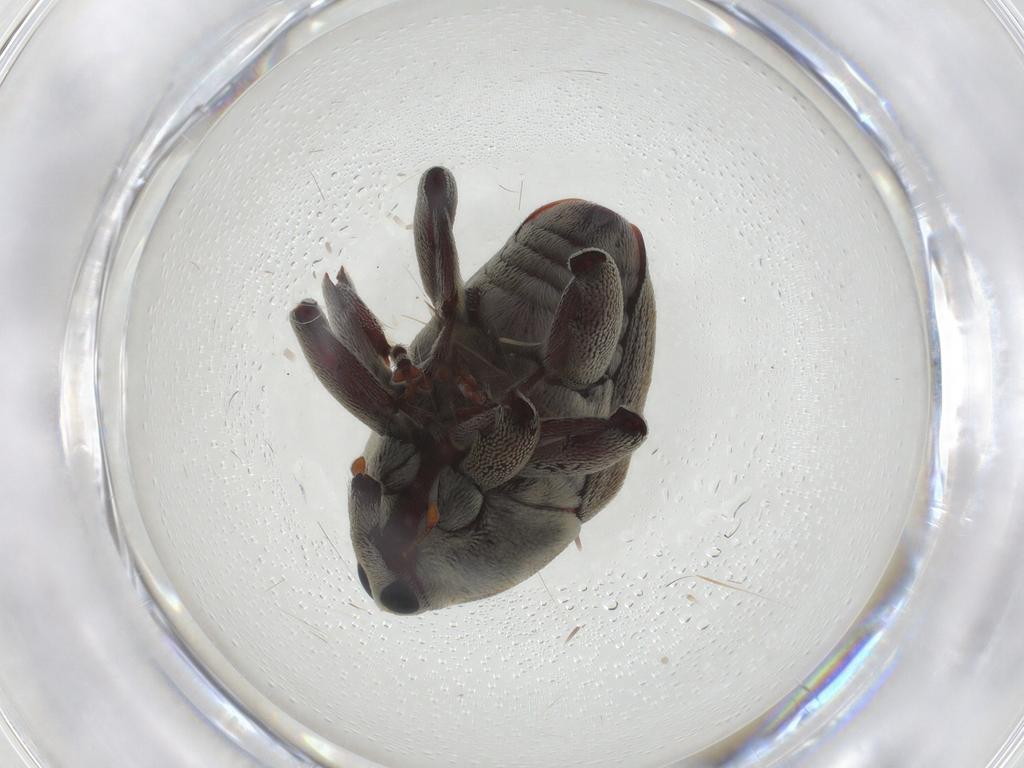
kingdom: Animalia
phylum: Arthropoda
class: Insecta
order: Coleoptera
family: Curculionidae
